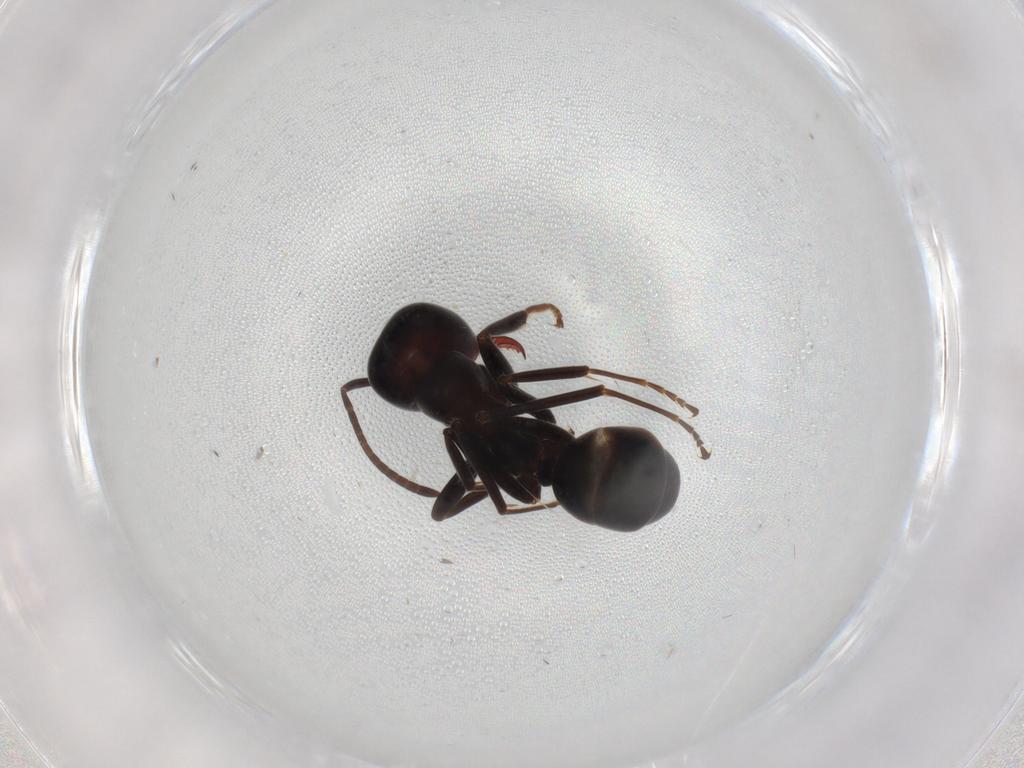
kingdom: Animalia
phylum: Arthropoda
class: Insecta
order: Hymenoptera
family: Formicidae
